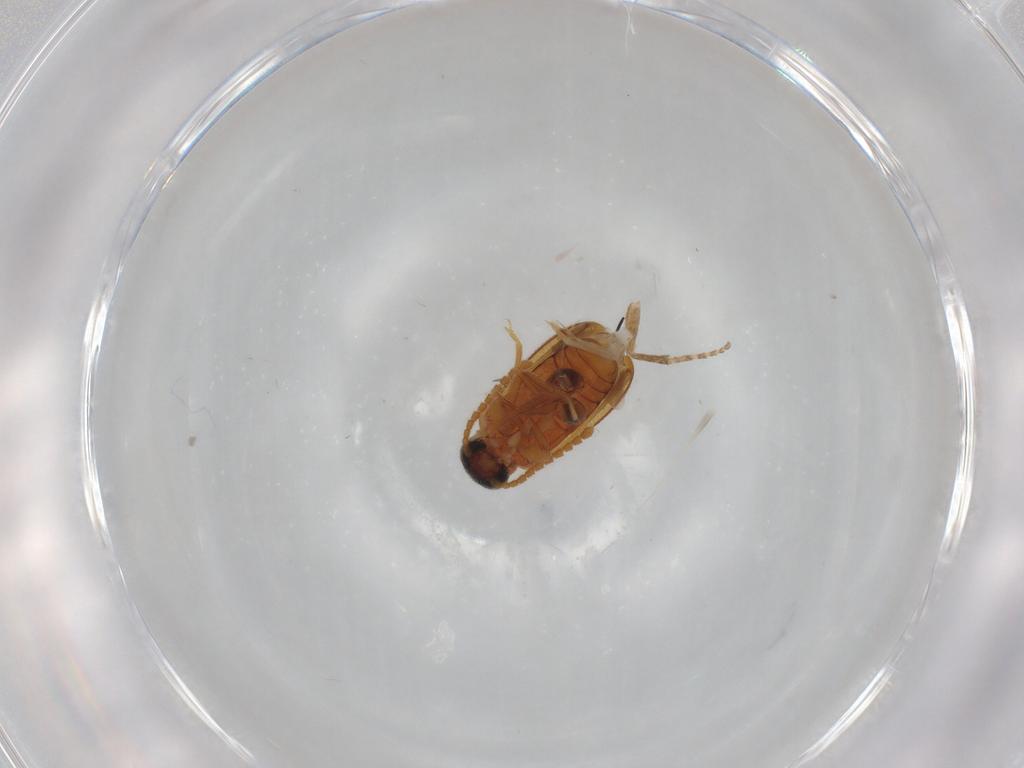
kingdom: Animalia
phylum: Arthropoda
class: Insecta
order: Coleoptera
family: Aderidae
